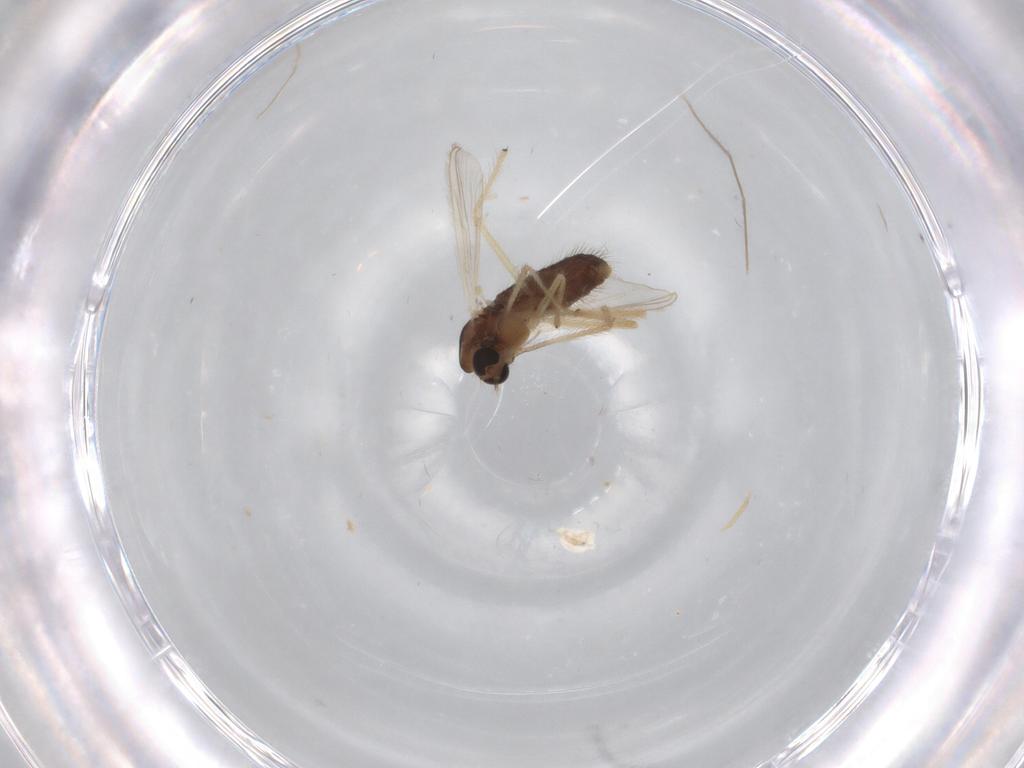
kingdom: Animalia
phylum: Arthropoda
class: Insecta
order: Diptera
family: Chironomidae
